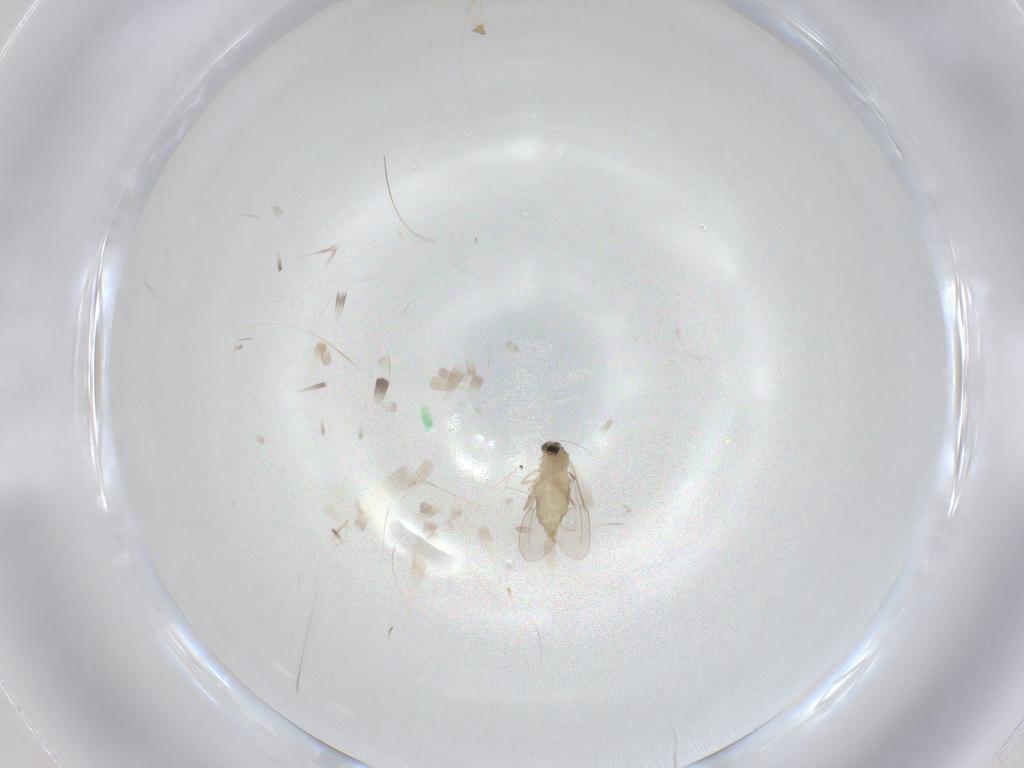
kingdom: Animalia
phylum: Arthropoda
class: Insecta
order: Diptera
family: Cecidomyiidae
